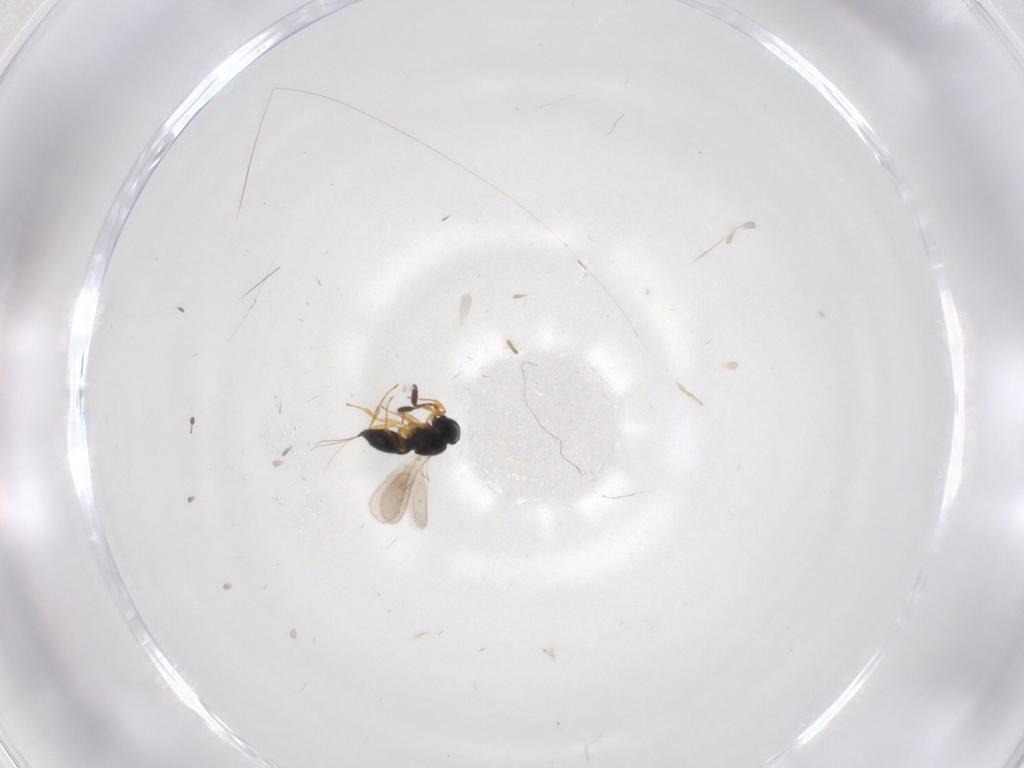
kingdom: Animalia
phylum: Arthropoda
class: Insecta
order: Hymenoptera
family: Scelionidae
